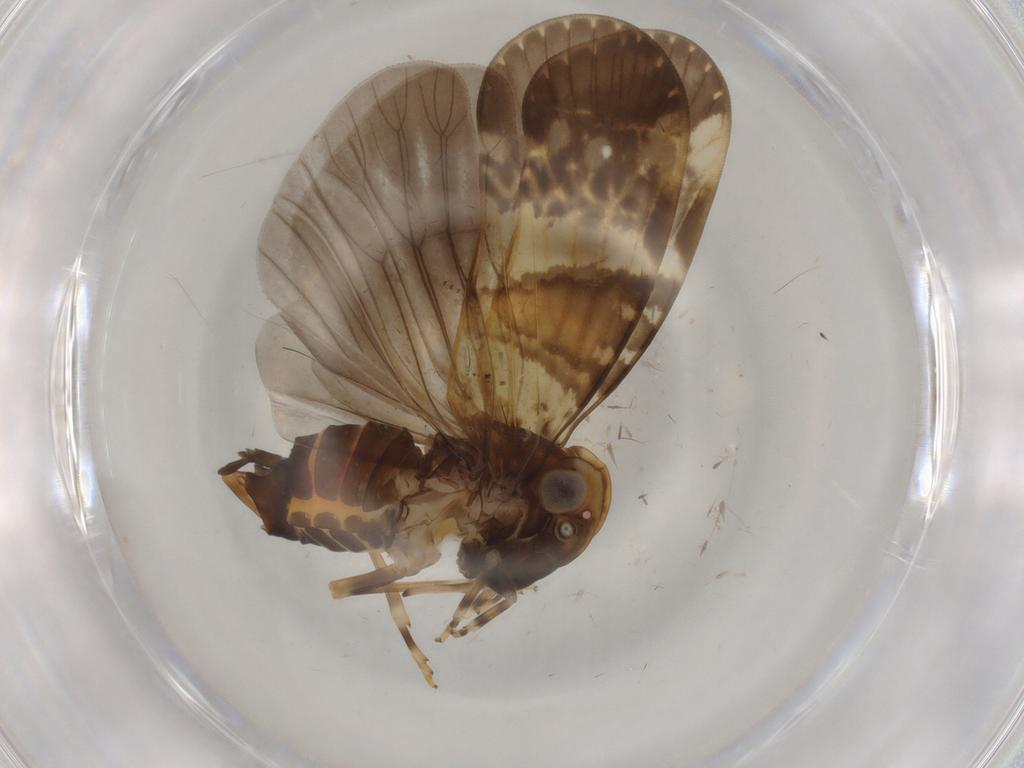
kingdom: Animalia
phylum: Arthropoda
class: Insecta
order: Hemiptera
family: Cixiidae
